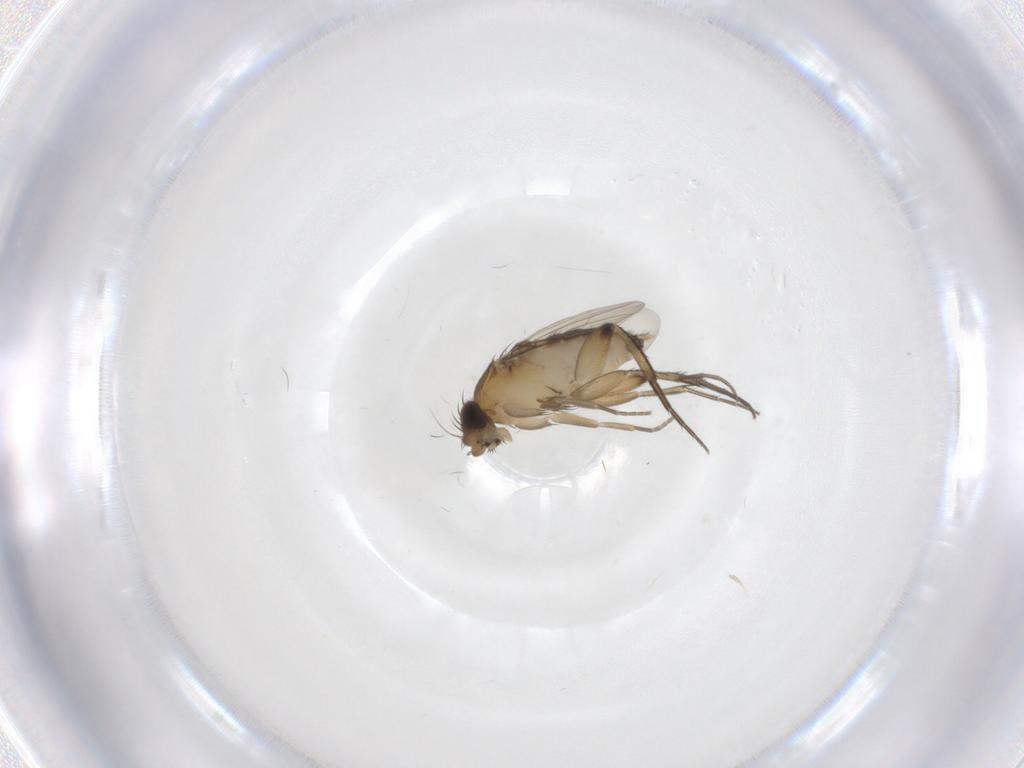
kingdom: Animalia
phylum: Arthropoda
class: Insecta
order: Diptera
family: Phoridae
